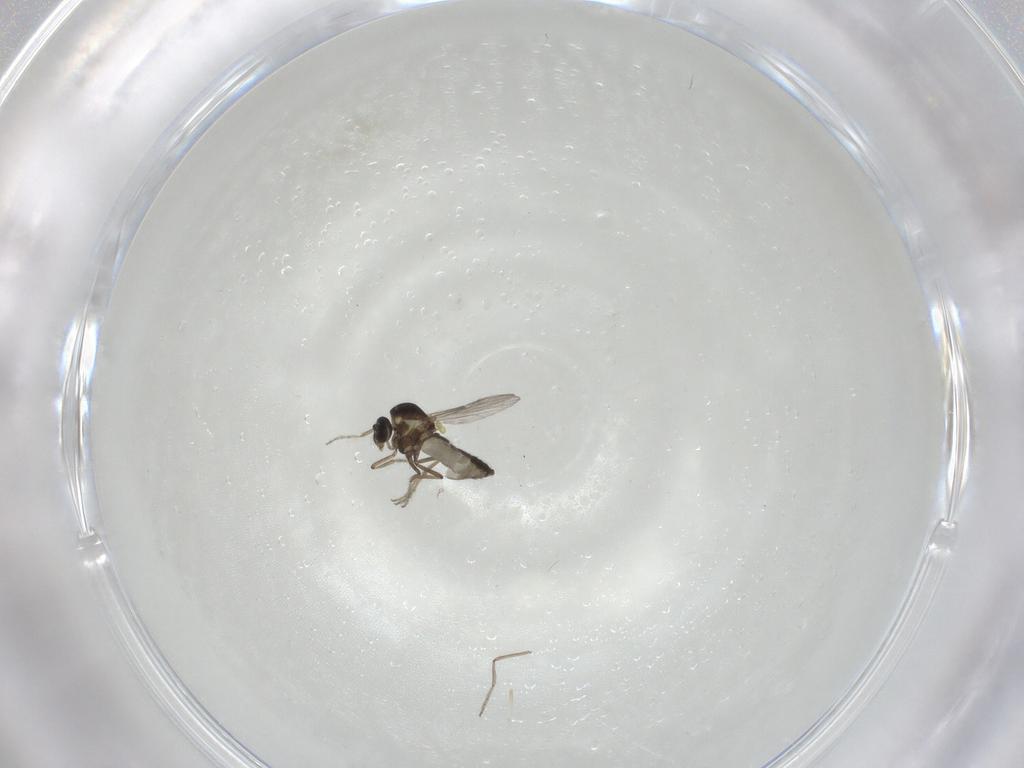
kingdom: Animalia
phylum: Arthropoda
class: Insecta
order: Diptera
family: Ceratopogonidae
